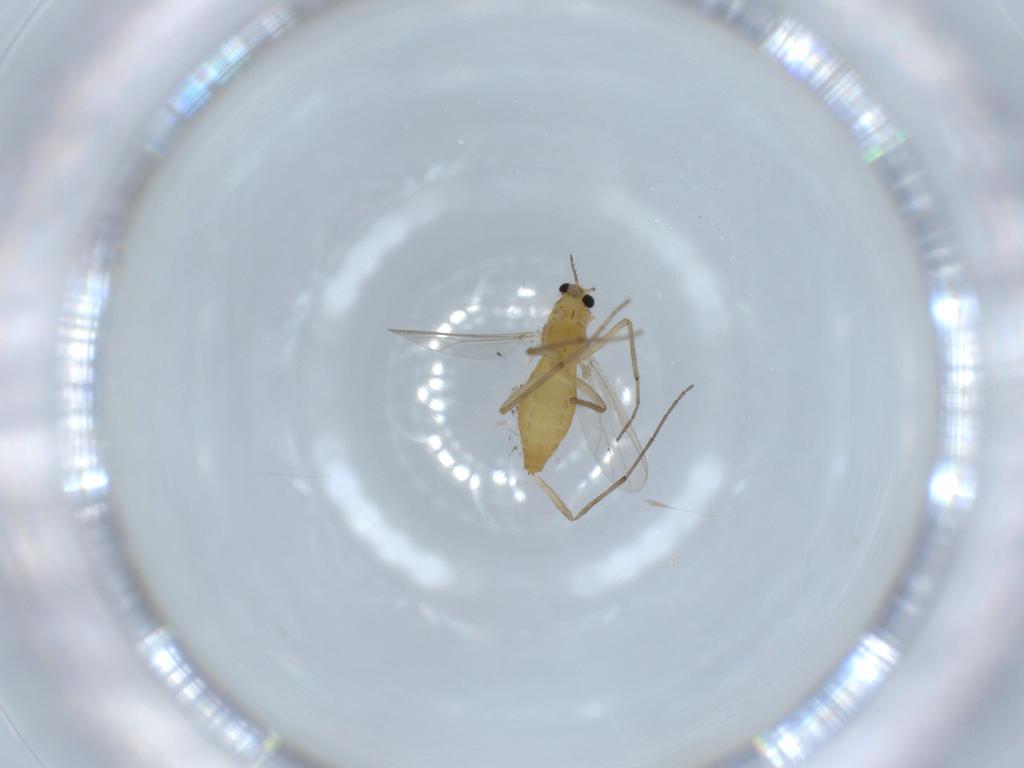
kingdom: Animalia
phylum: Arthropoda
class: Insecta
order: Diptera
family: Chironomidae
